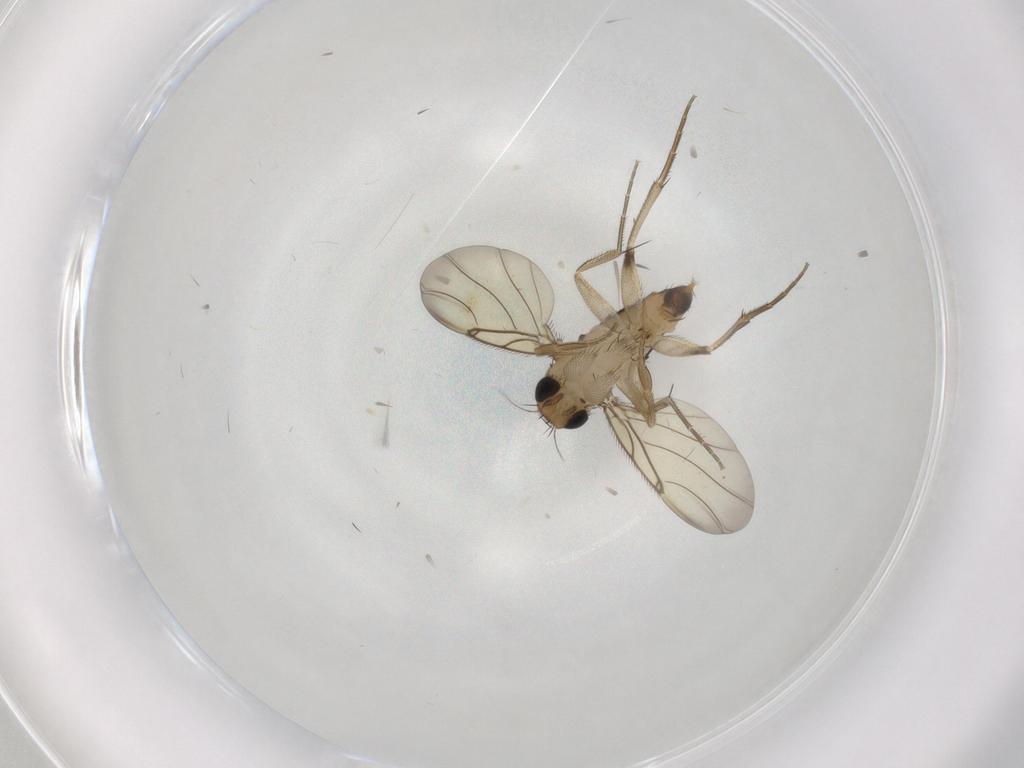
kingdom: Animalia
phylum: Arthropoda
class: Insecta
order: Diptera
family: Phoridae
